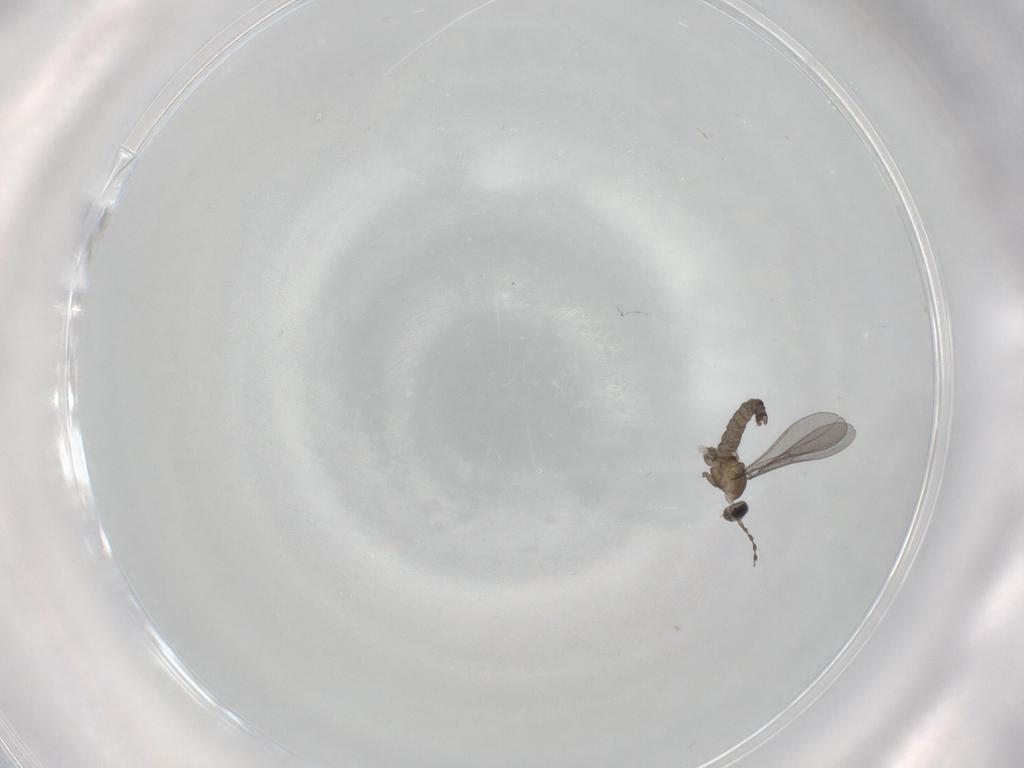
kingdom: Animalia
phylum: Arthropoda
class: Insecta
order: Diptera
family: Cecidomyiidae
